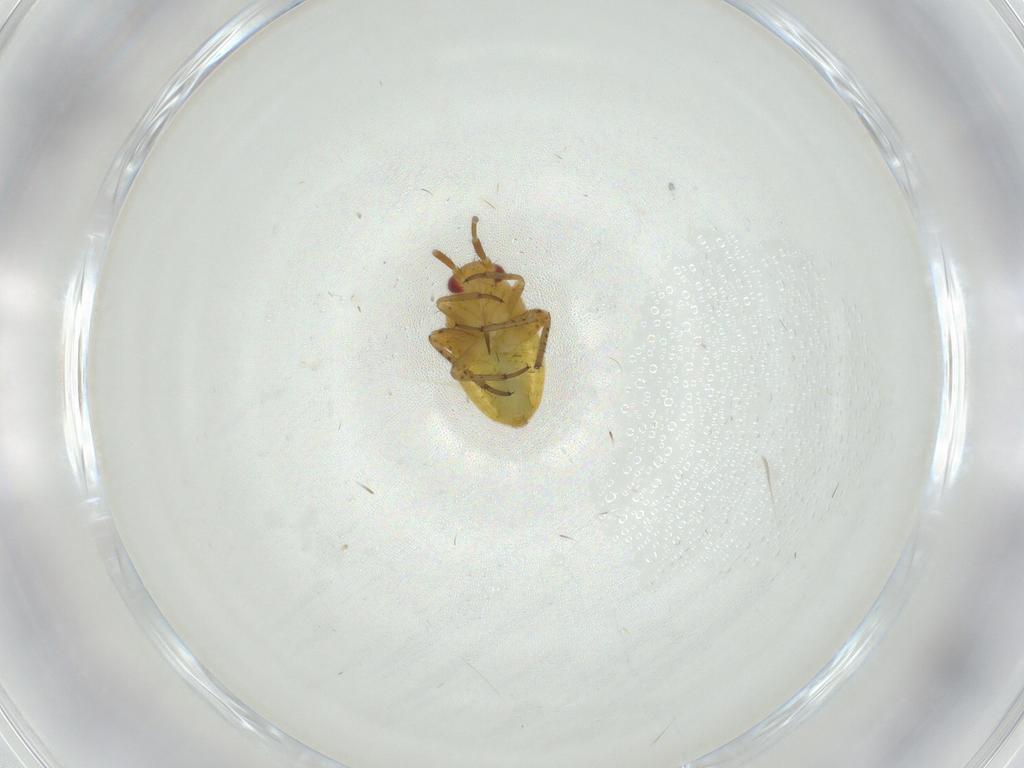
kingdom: Animalia
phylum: Arthropoda
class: Insecta
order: Hemiptera
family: Miridae
